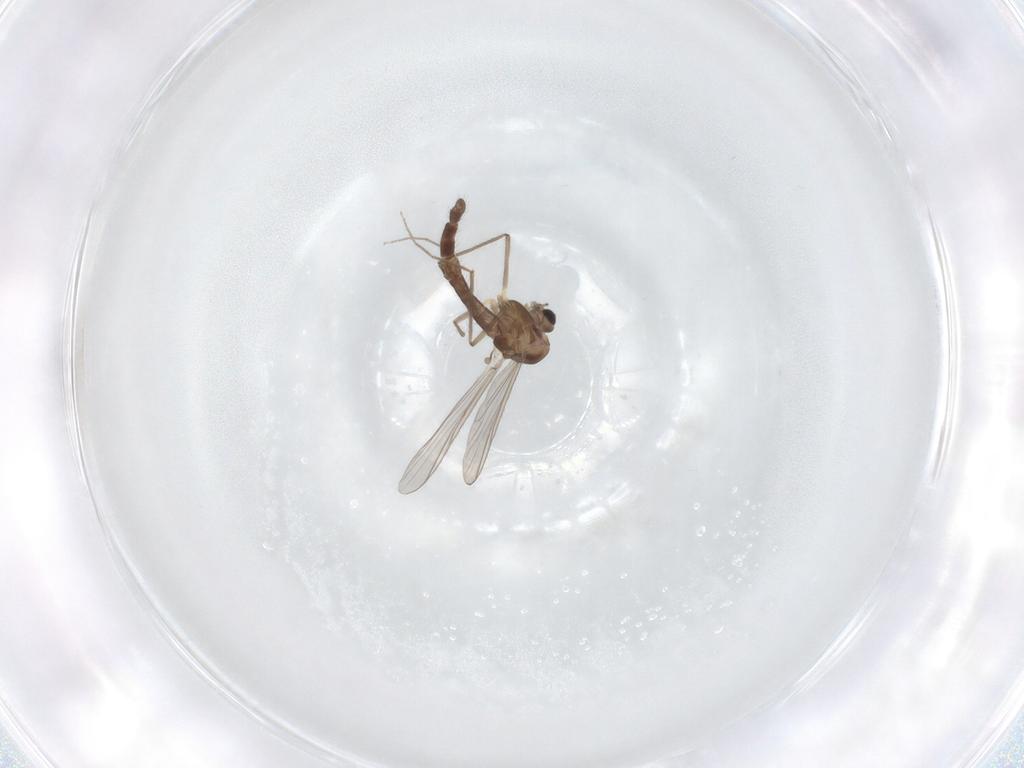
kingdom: Animalia
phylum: Arthropoda
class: Insecta
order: Diptera
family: Chironomidae
